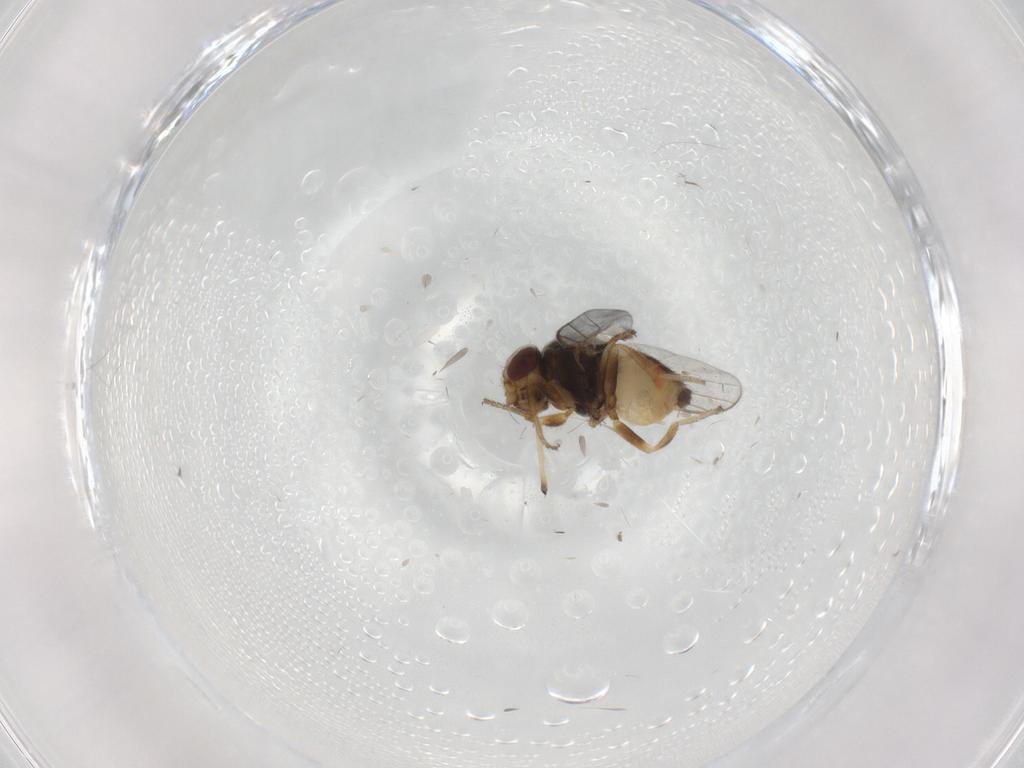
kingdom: Animalia
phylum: Arthropoda
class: Insecta
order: Diptera
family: Chloropidae
